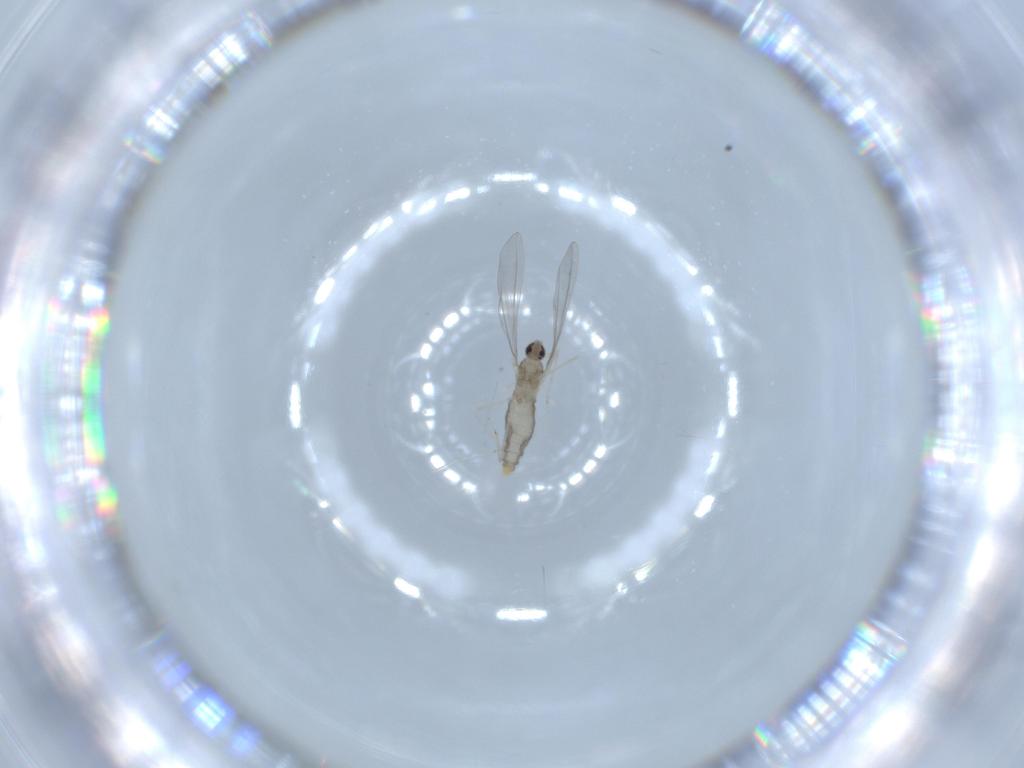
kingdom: Animalia
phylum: Arthropoda
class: Insecta
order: Diptera
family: Cecidomyiidae
